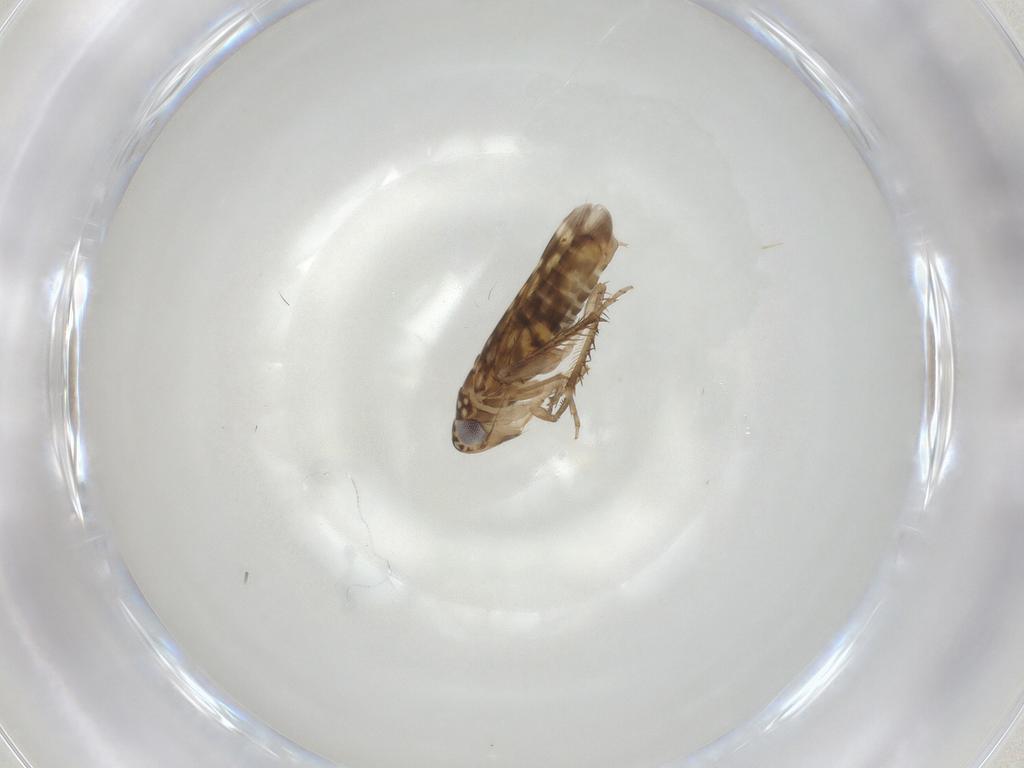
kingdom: Animalia
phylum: Arthropoda
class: Insecta
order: Hemiptera
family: Cicadellidae
